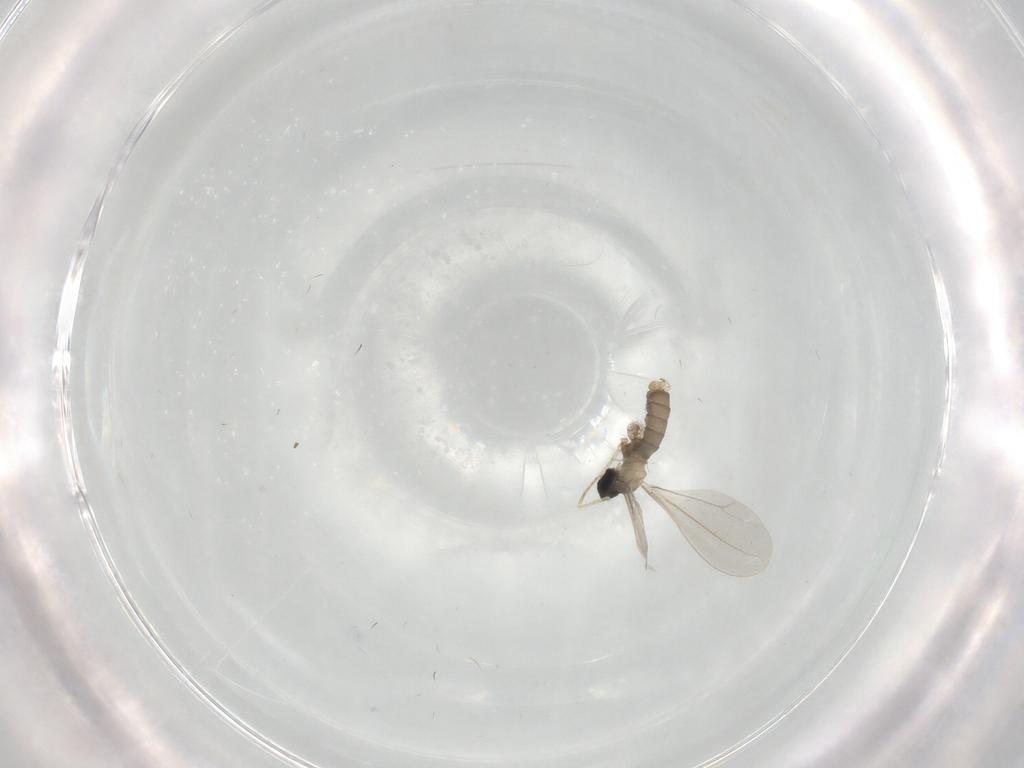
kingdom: Animalia
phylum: Arthropoda
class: Insecta
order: Diptera
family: Cecidomyiidae
